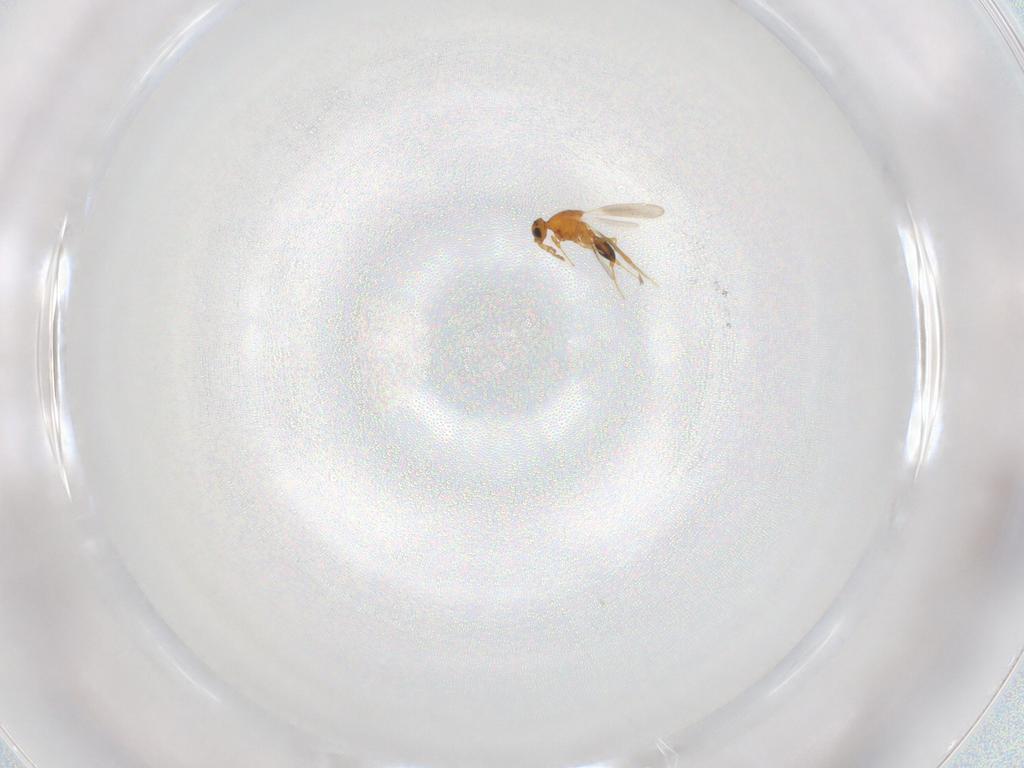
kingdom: Animalia
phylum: Arthropoda
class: Insecta
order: Hymenoptera
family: Platygastridae
